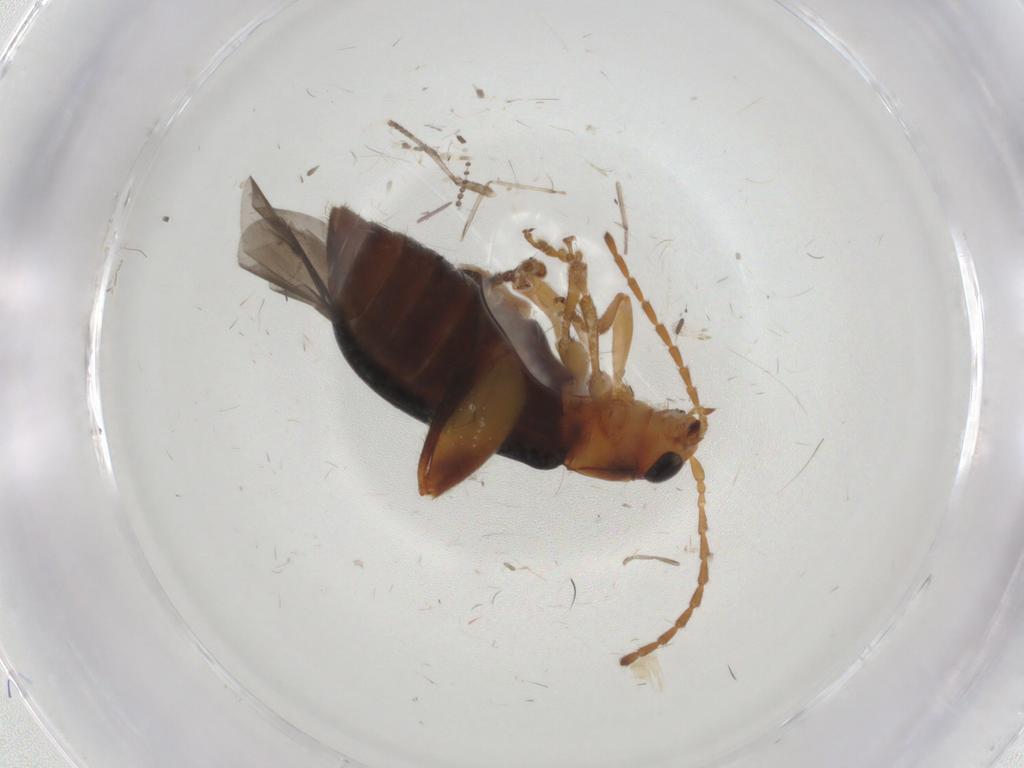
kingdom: Animalia
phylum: Arthropoda
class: Insecta
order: Coleoptera
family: Chrysomelidae
